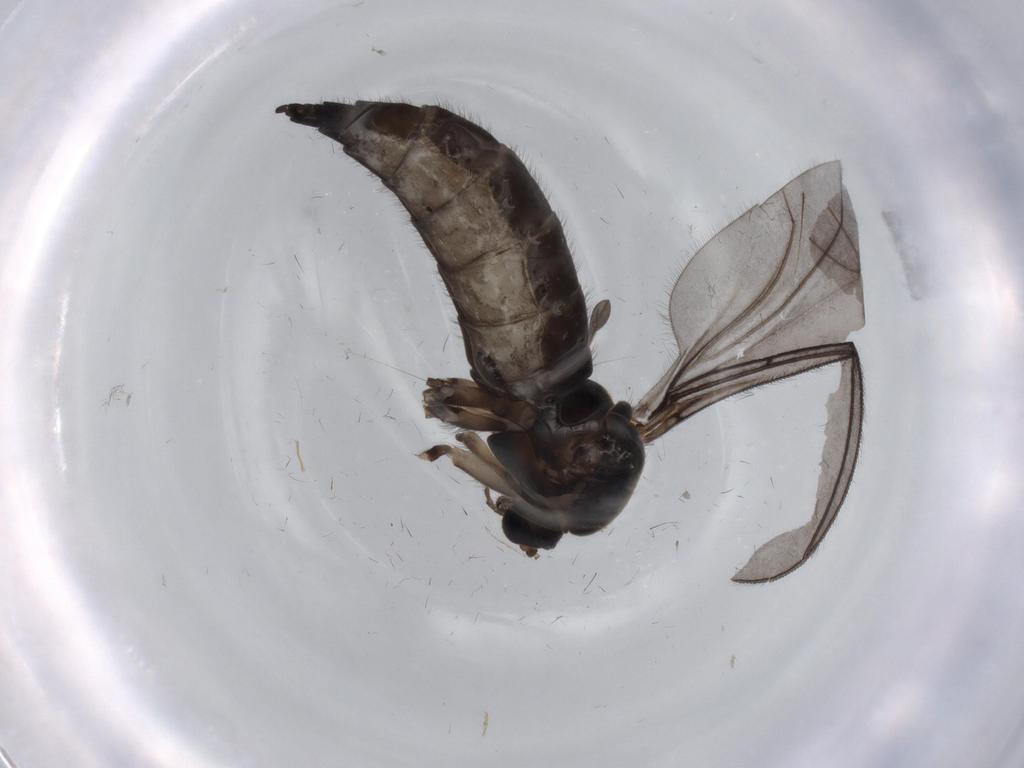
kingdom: Animalia
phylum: Arthropoda
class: Insecta
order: Diptera
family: Sciaridae
